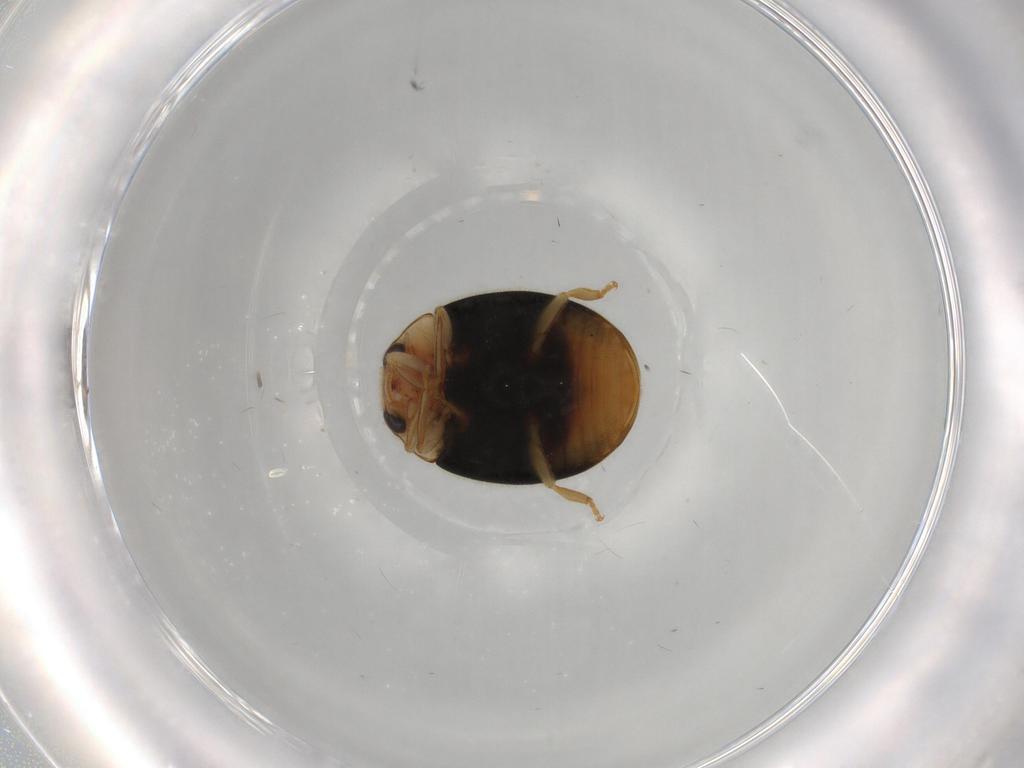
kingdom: Animalia
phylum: Arthropoda
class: Insecta
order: Coleoptera
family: Coccinellidae
